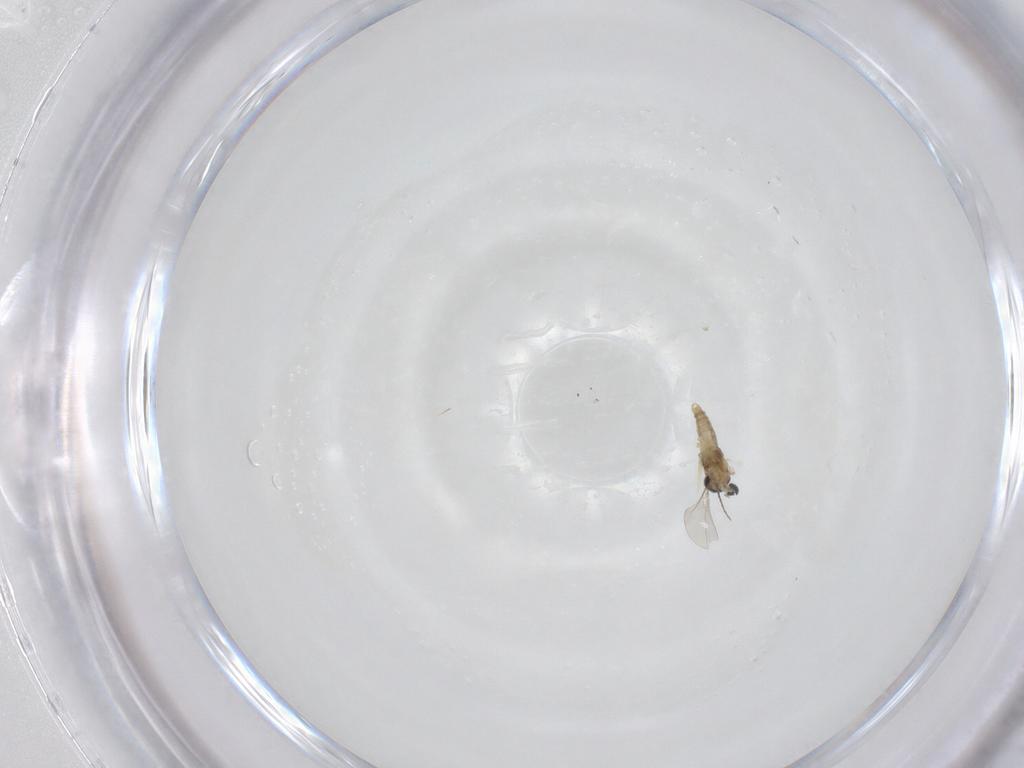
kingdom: Animalia
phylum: Arthropoda
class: Insecta
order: Diptera
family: Cecidomyiidae
